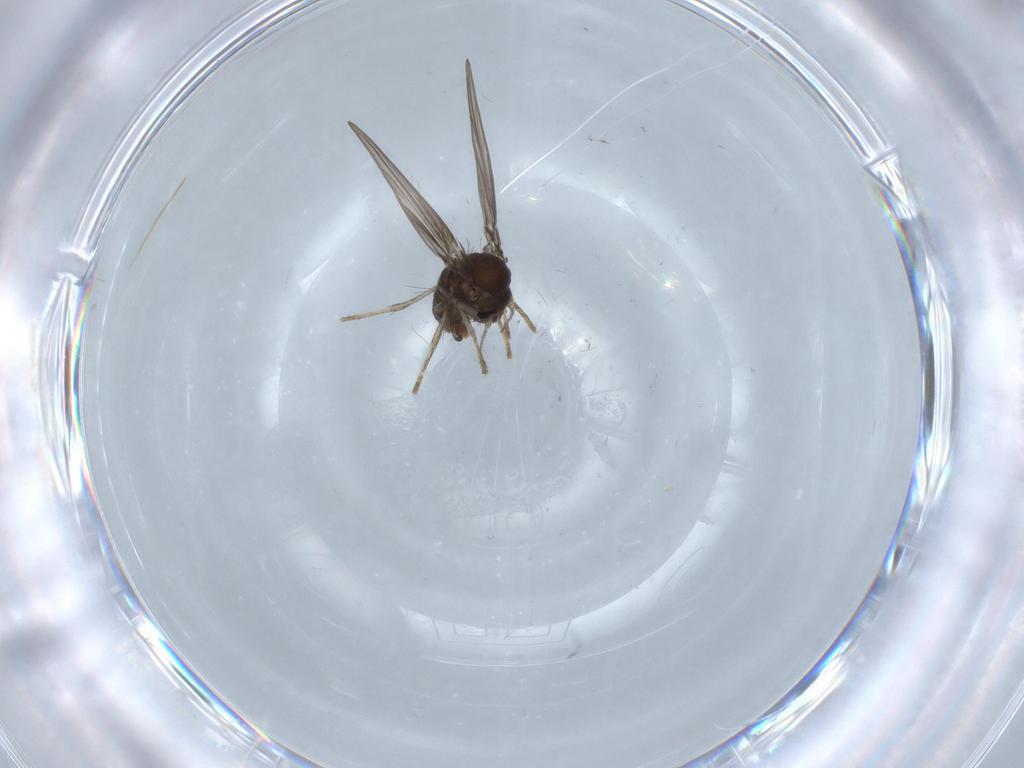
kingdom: Animalia
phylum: Arthropoda
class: Insecta
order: Diptera
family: Psychodidae
